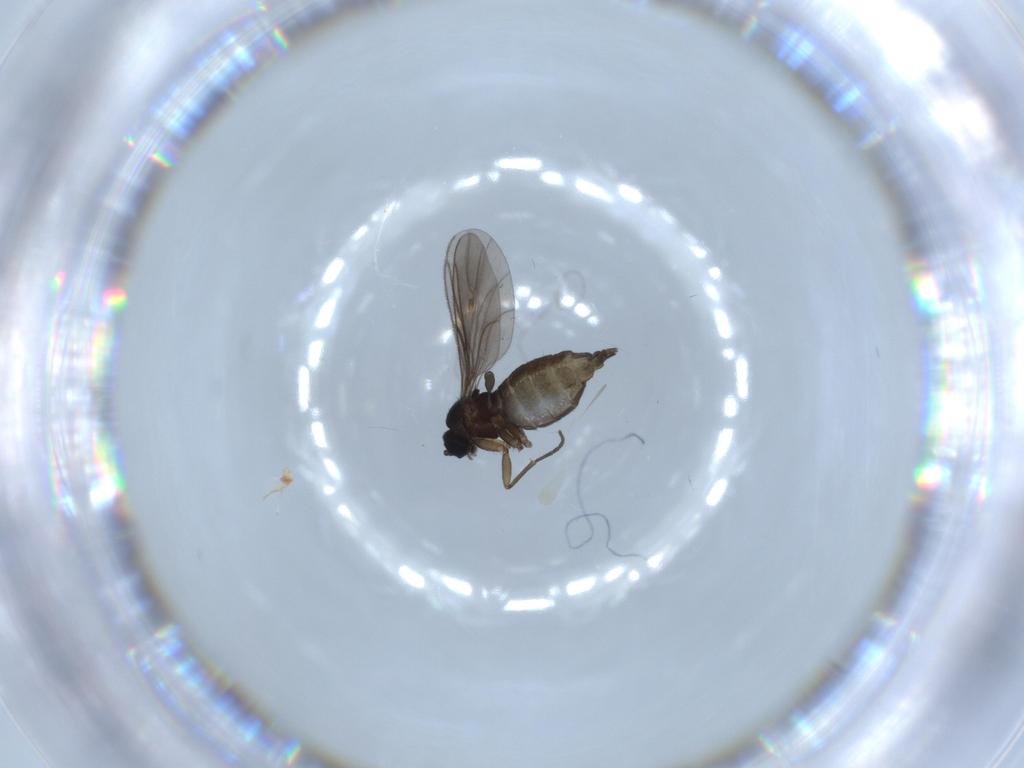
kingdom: Animalia
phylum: Arthropoda
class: Insecta
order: Diptera
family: Sciaridae
